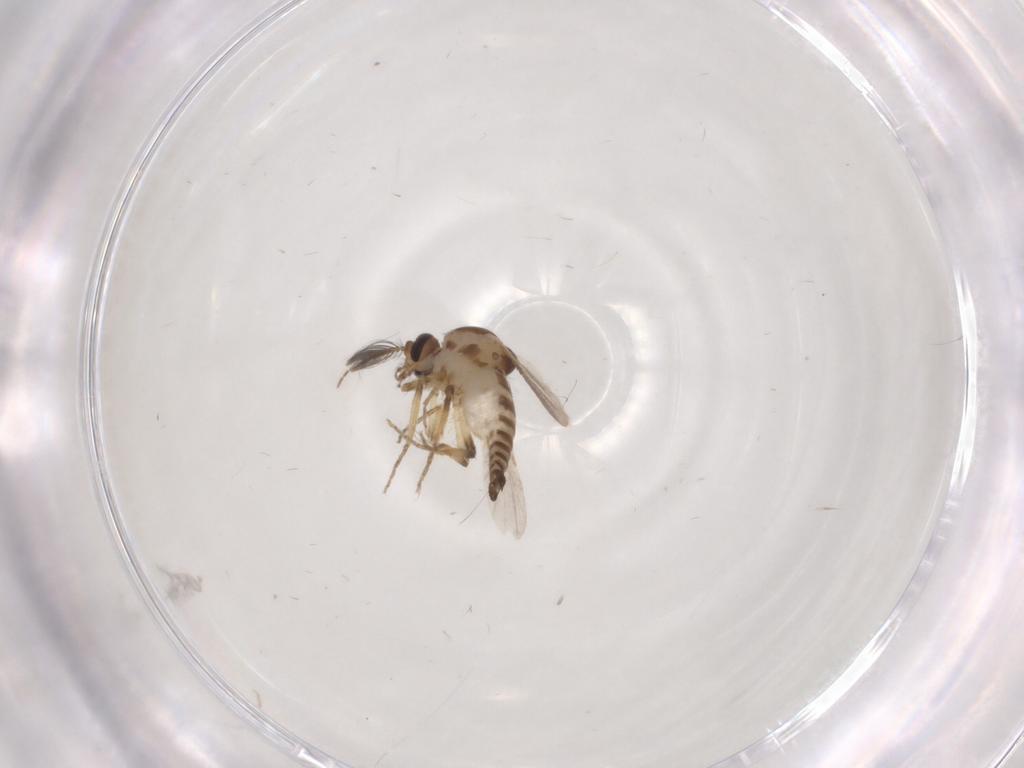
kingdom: Animalia
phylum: Arthropoda
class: Insecta
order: Diptera
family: Ceratopogonidae
